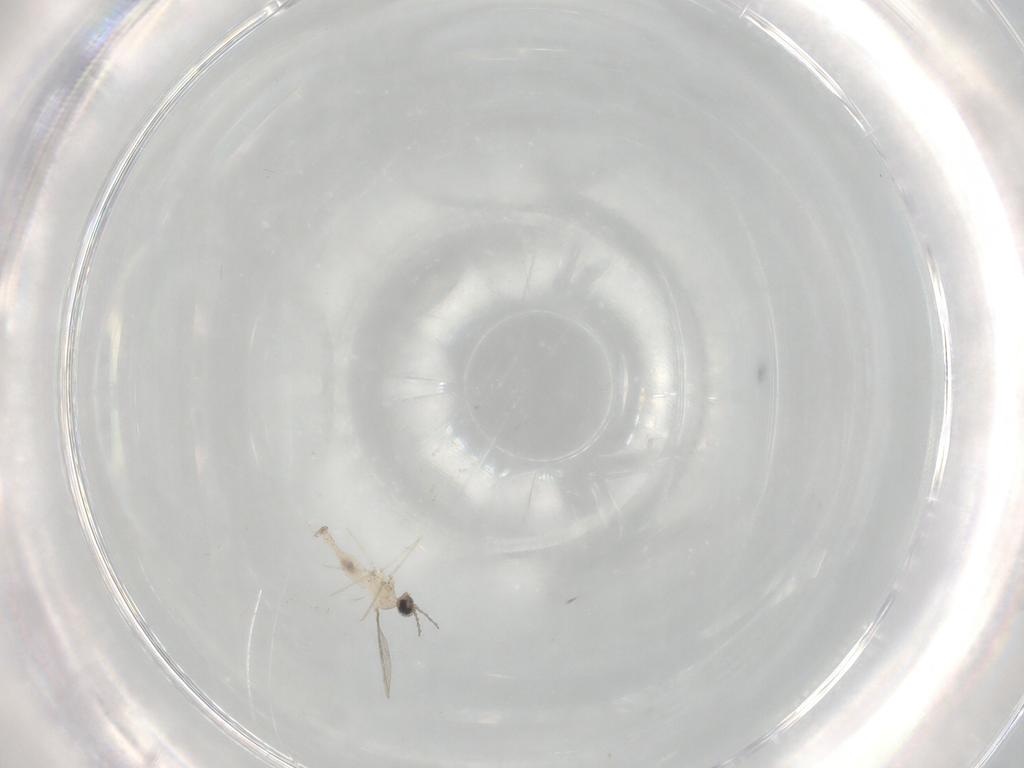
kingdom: Animalia
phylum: Arthropoda
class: Insecta
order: Diptera
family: Cecidomyiidae
